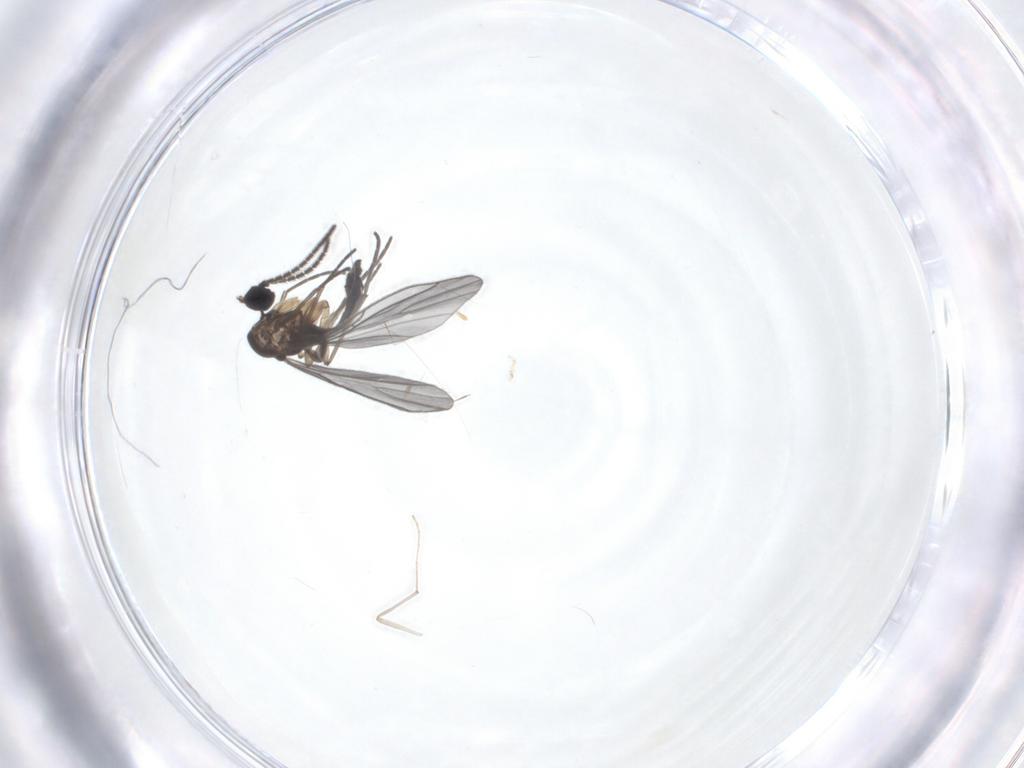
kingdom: Animalia
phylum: Arthropoda
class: Insecta
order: Diptera
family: Sciaridae
